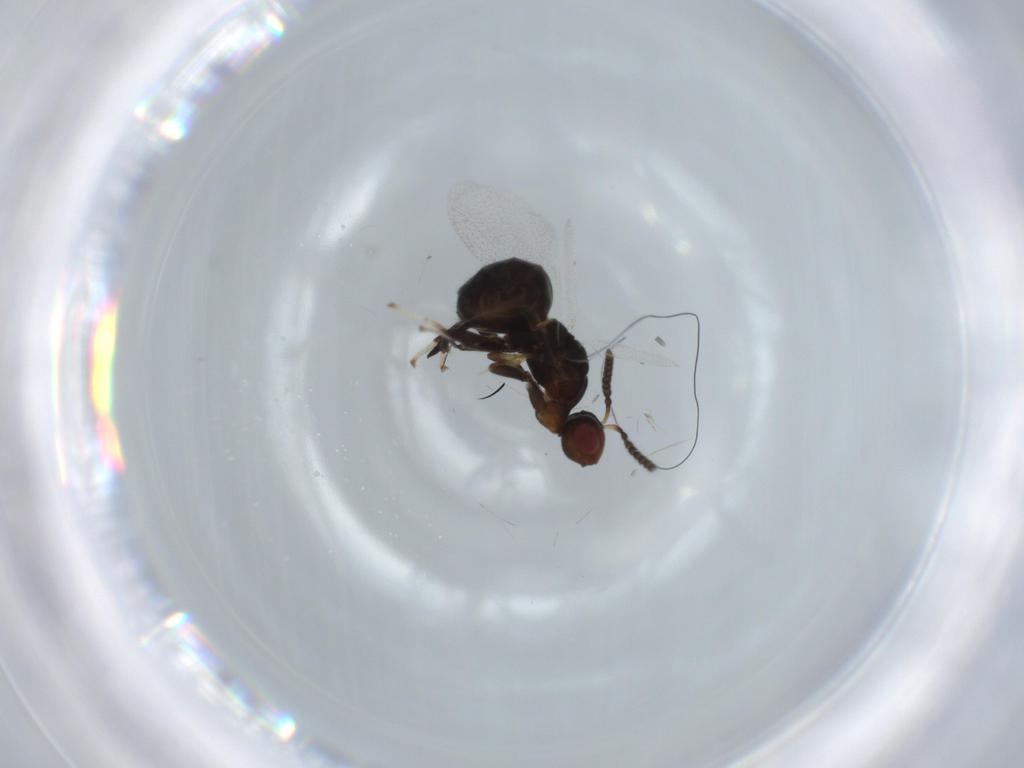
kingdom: Animalia
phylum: Arthropoda
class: Insecta
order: Hymenoptera
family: Agaonidae
